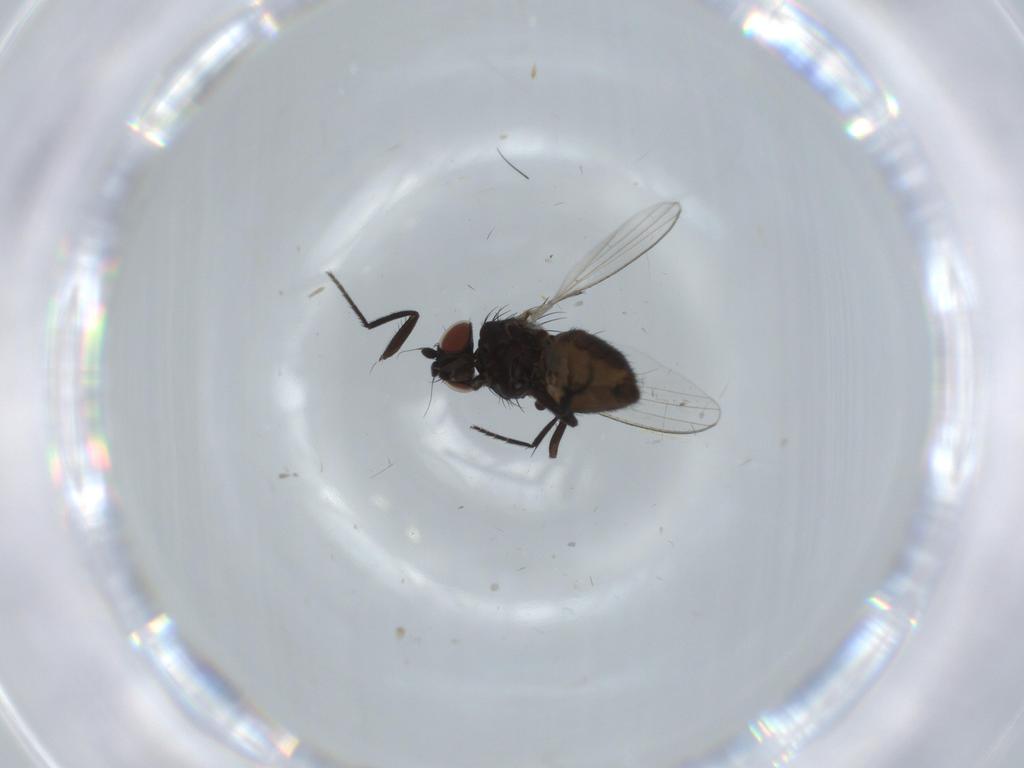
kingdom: Animalia
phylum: Arthropoda
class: Insecta
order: Diptera
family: Milichiidae
